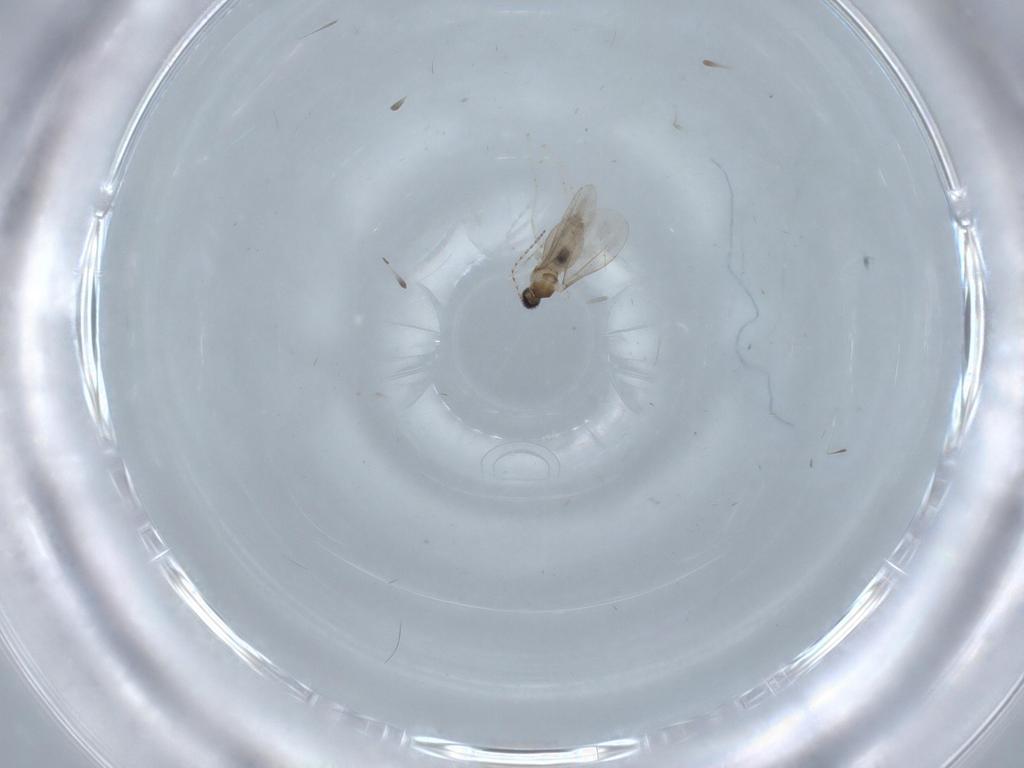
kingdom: Animalia
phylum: Arthropoda
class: Insecta
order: Diptera
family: Cecidomyiidae
